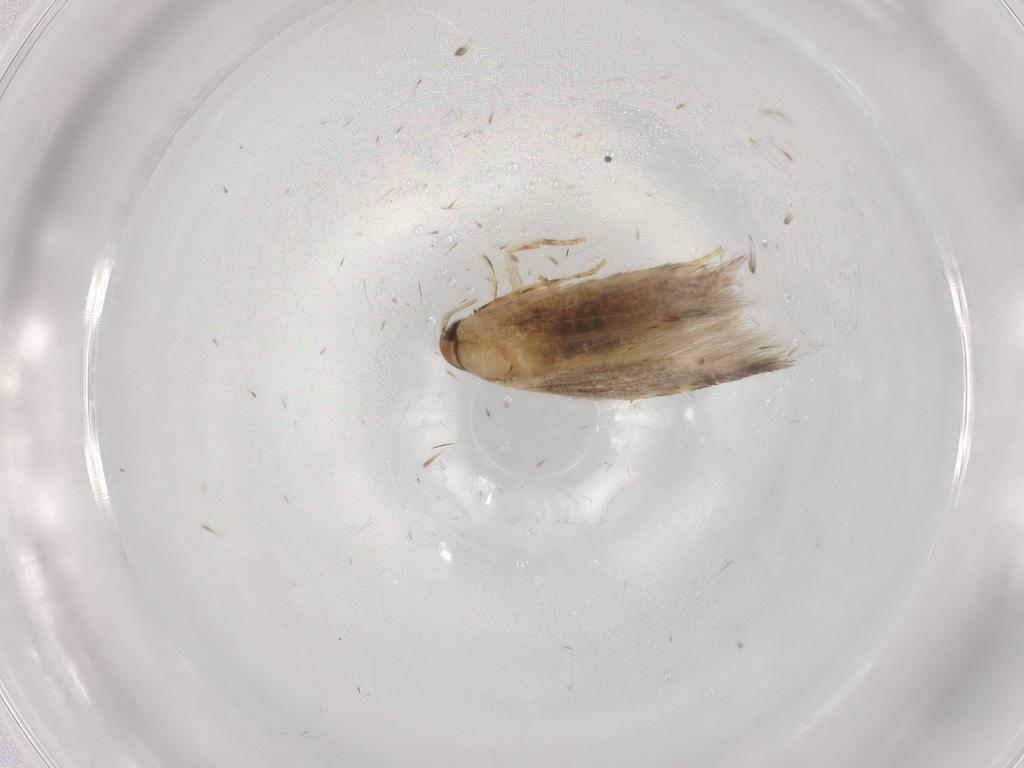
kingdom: Animalia
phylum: Arthropoda
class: Insecta
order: Lepidoptera
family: Cosmopterigidae
